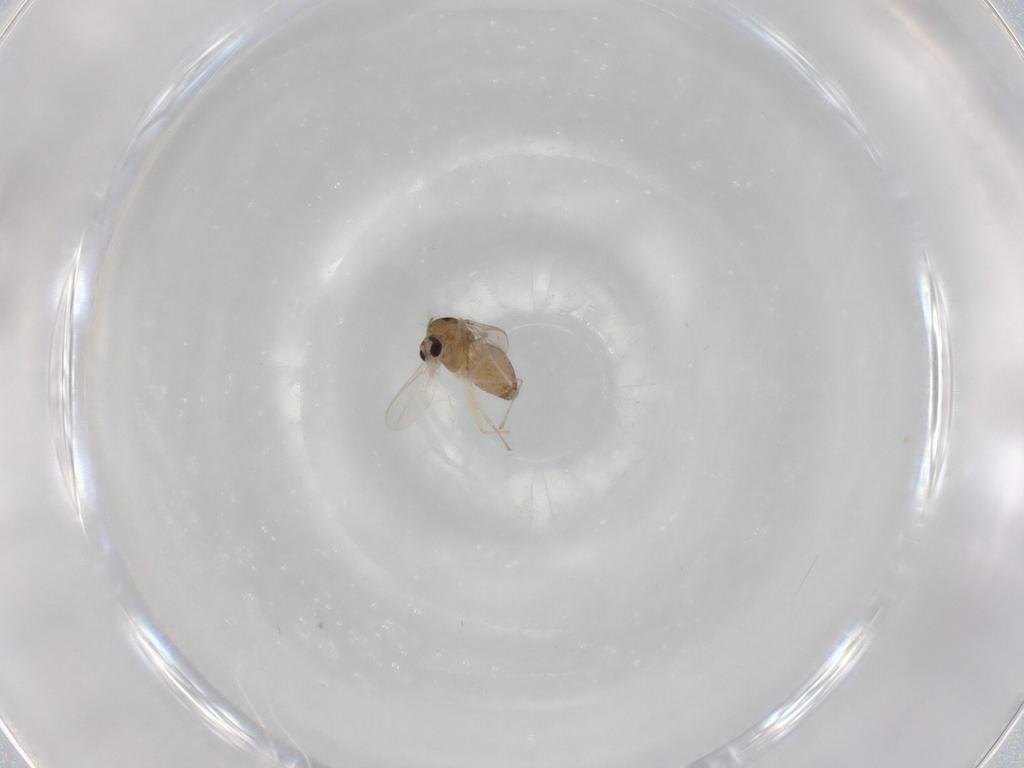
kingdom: Animalia
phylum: Arthropoda
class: Insecta
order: Diptera
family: Chironomidae
